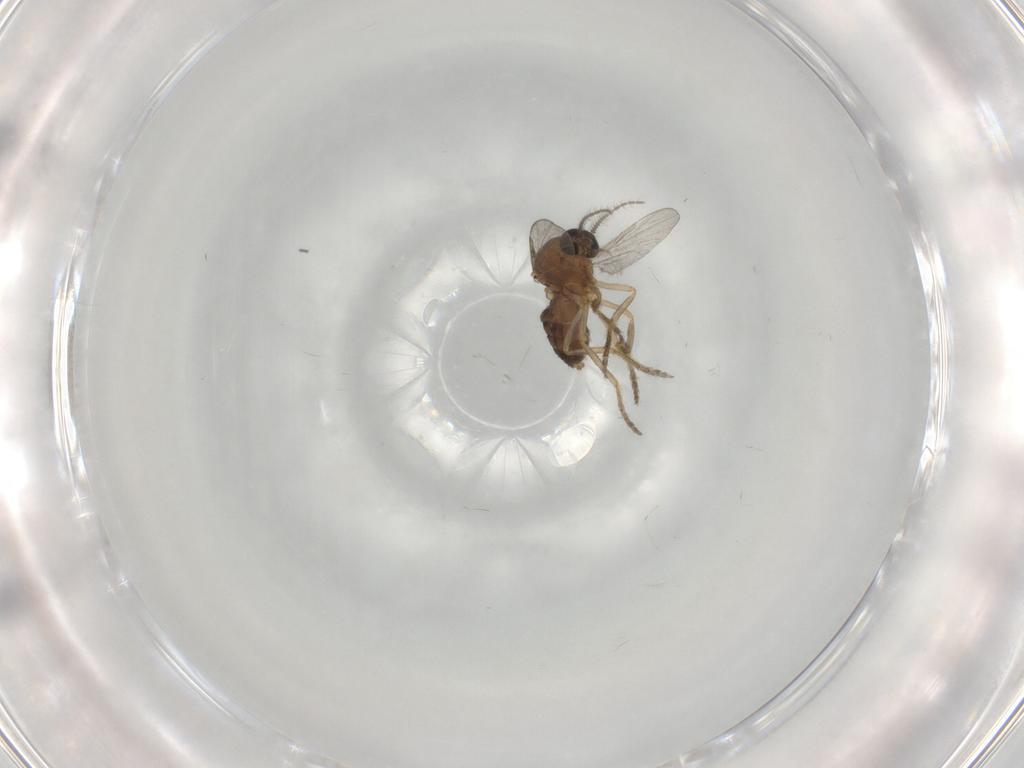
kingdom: Animalia
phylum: Arthropoda
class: Insecta
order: Diptera
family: Ceratopogonidae
